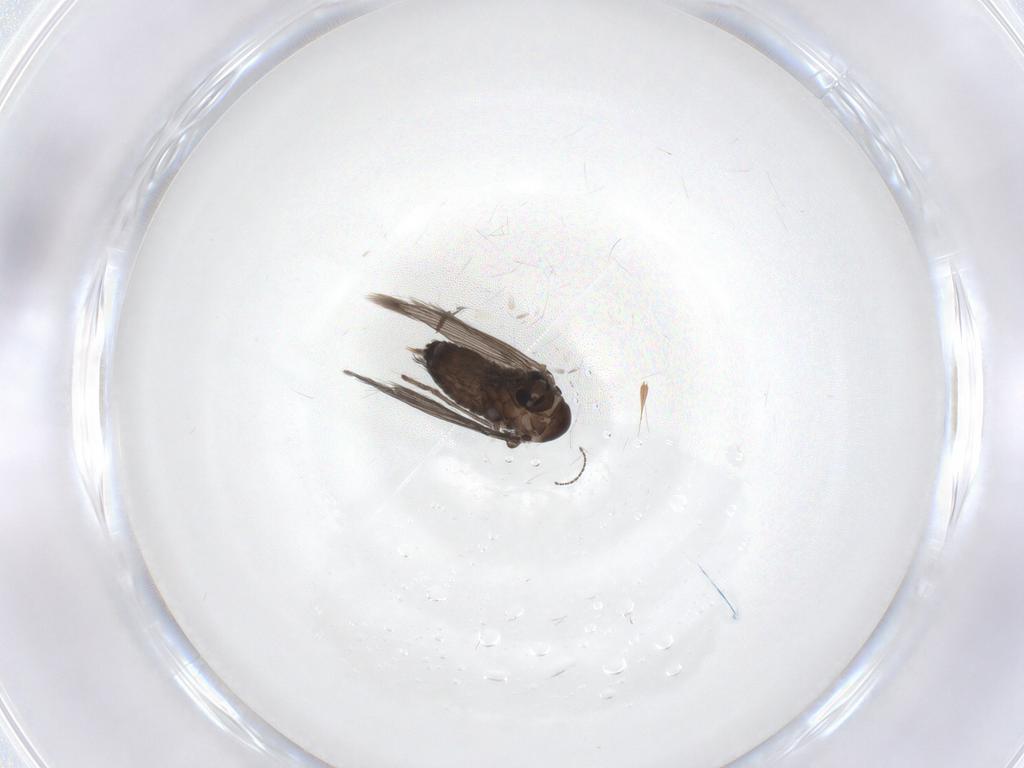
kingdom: Animalia
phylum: Arthropoda
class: Insecta
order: Diptera
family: Psychodidae
